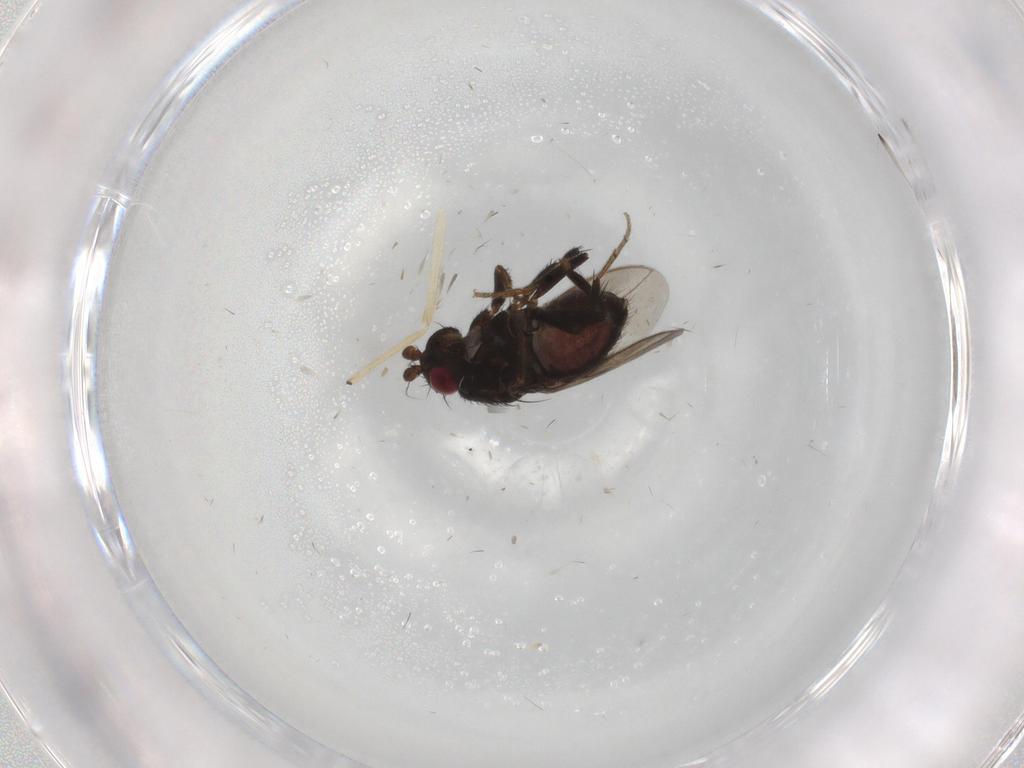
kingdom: Animalia
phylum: Arthropoda
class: Insecta
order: Diptera
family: Sphaeroceridae
